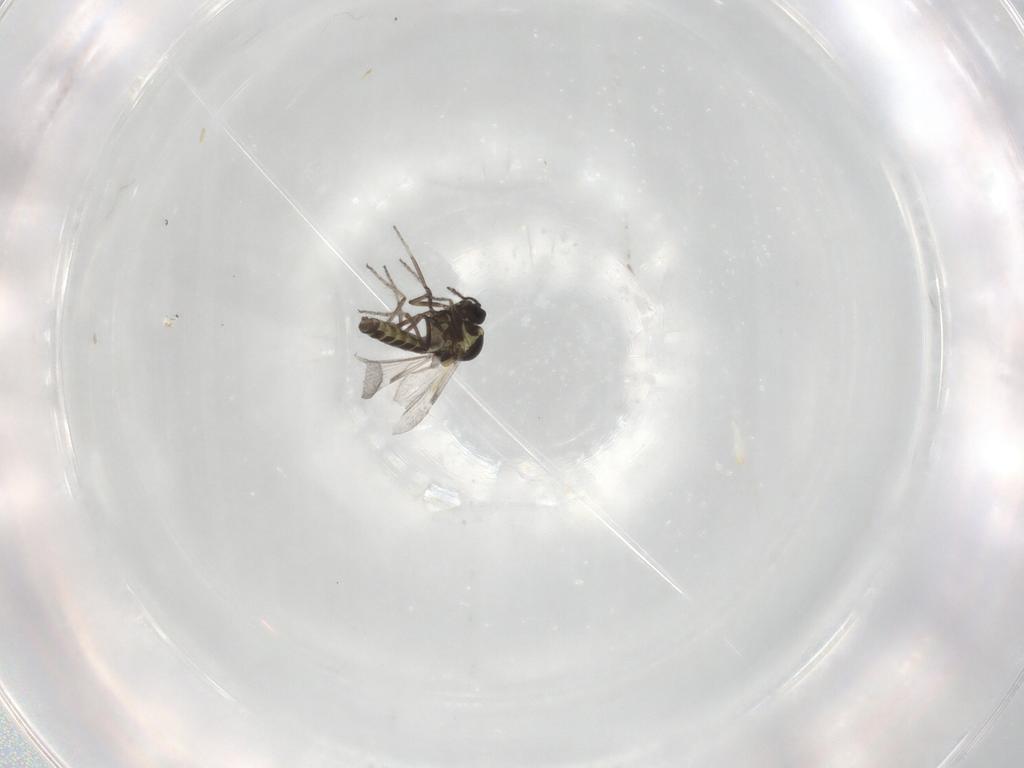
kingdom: Animalia
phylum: Arthropoda
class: Insecta
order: Diptera
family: Ceratopogonidae
